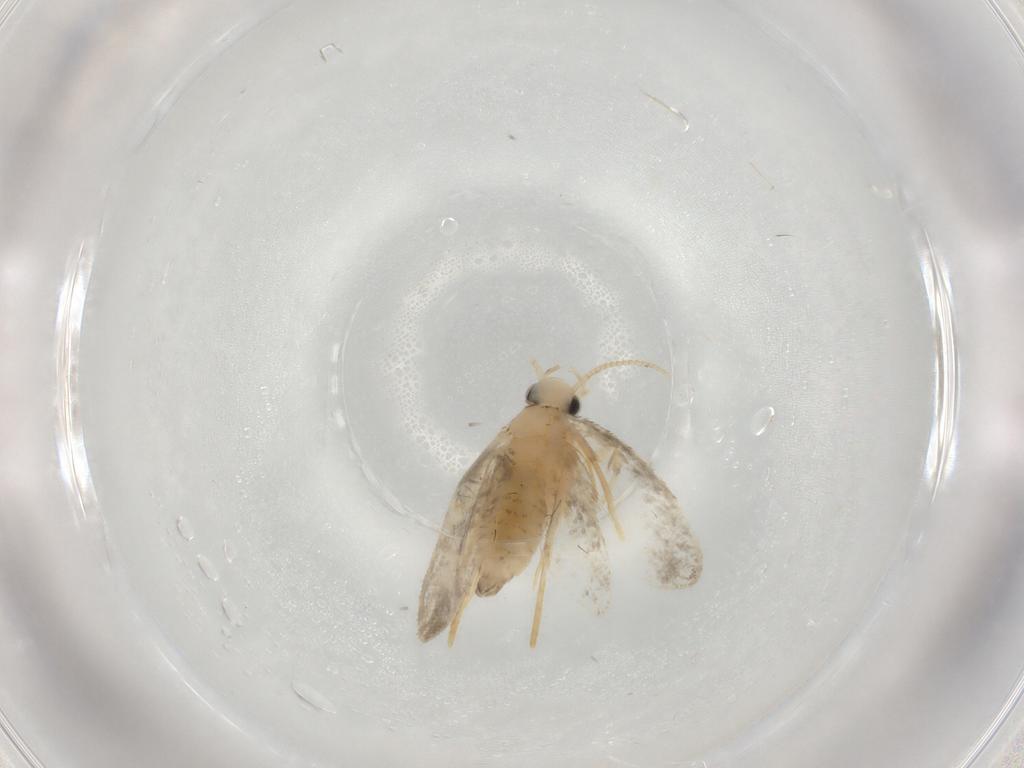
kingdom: Animalia
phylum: Arthropoda
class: Insecta
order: Lepidoptera
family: Psychidae
